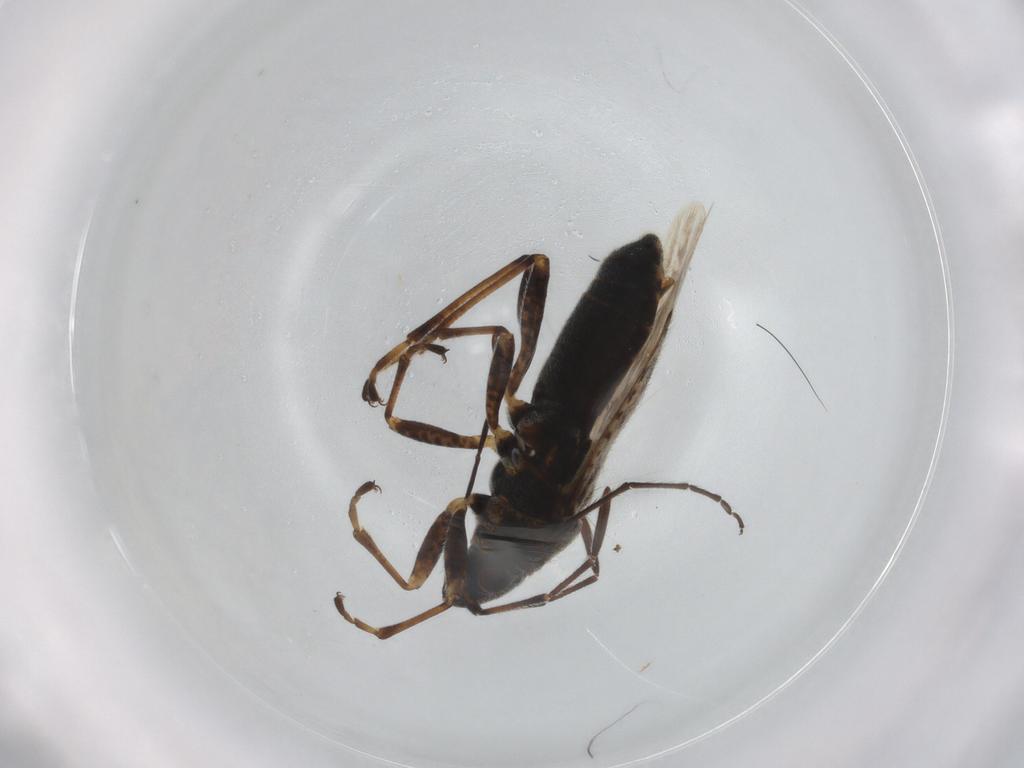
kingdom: Animalia
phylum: Arthropoda
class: Insecta
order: Hemiptera
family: Lygaeidae
